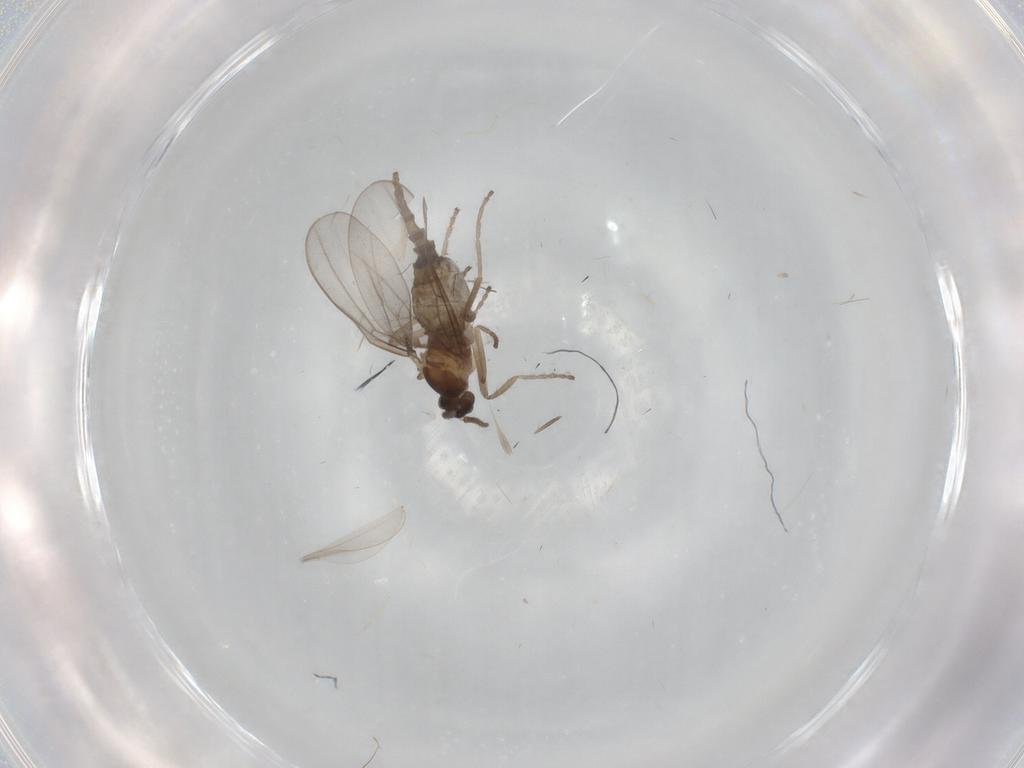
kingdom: Animalia
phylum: Arthropoda
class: Insecta
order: Diptera
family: Cecidomyiidae
